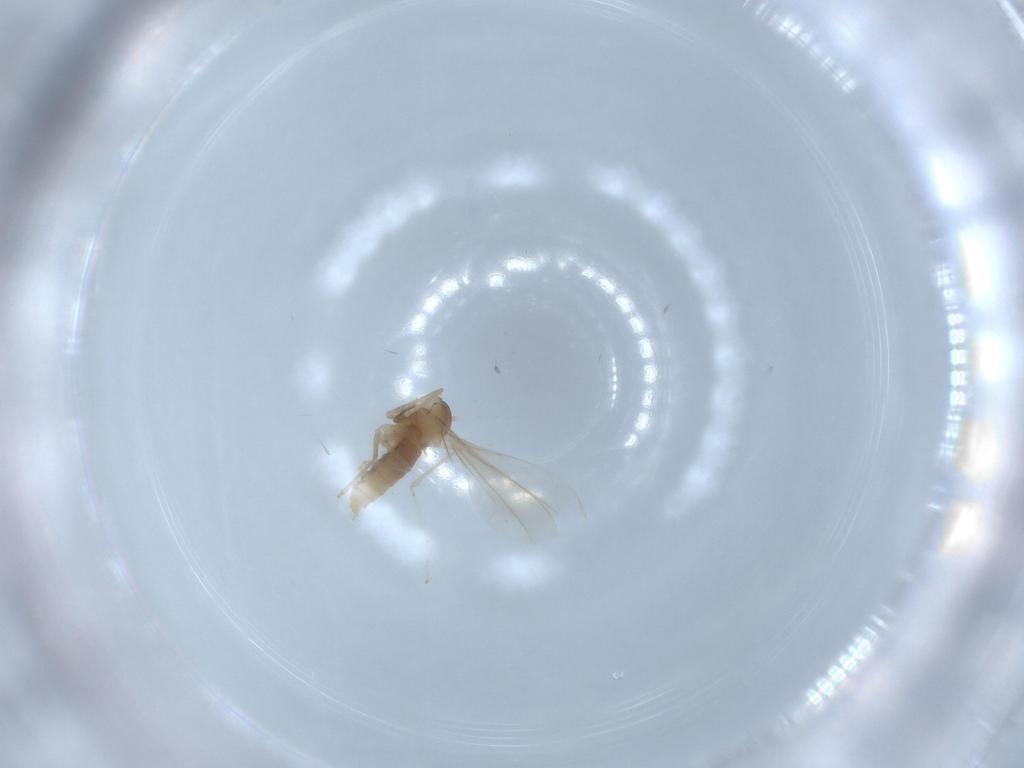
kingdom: Animalia
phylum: Arthropoda
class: Insecta
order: Diptera
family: Cecidomyiidae
